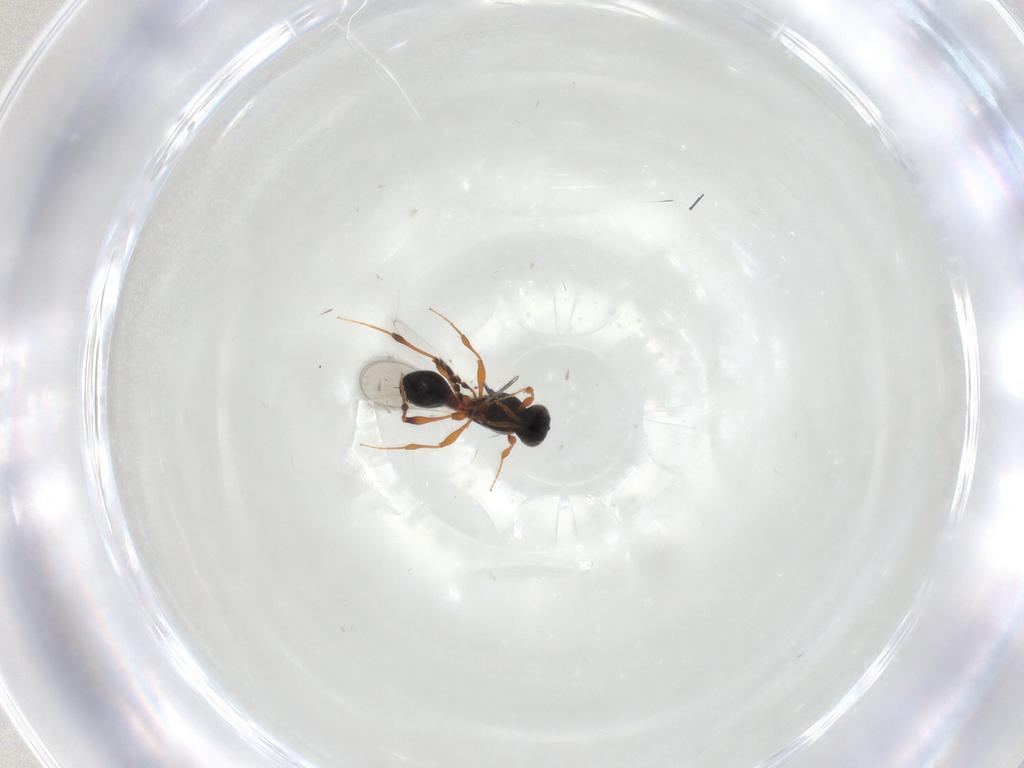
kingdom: Animalia
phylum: Arthropoda
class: Insecta
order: Hymenoptera
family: Platygastridae
